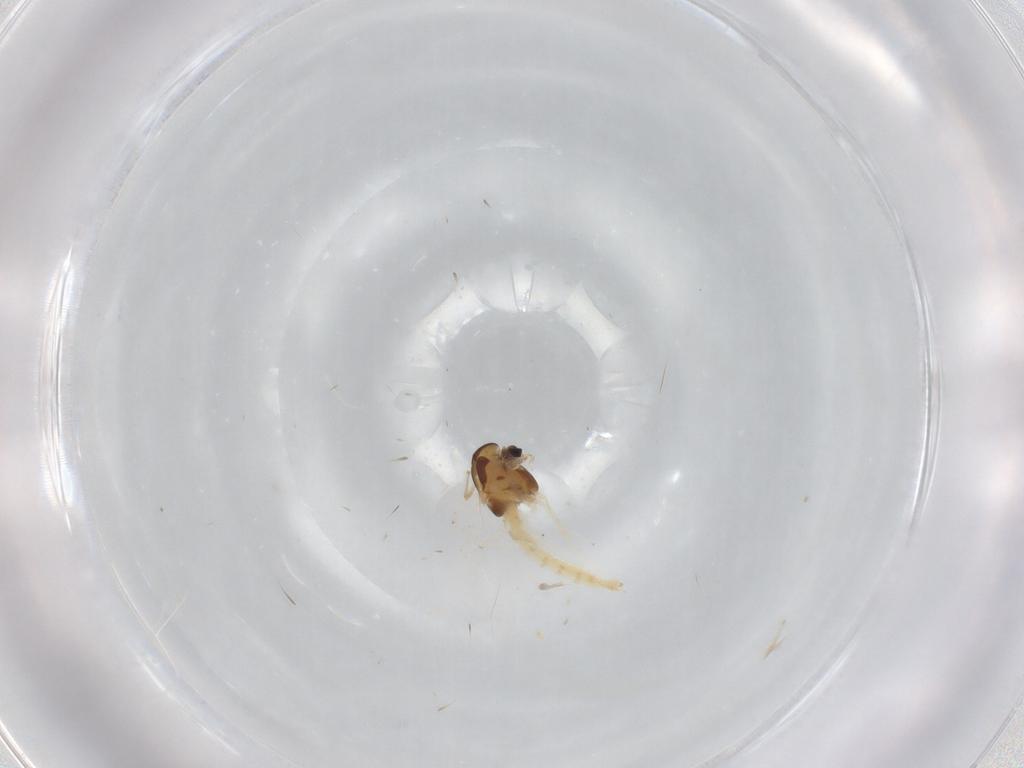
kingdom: Animalia
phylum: Arthropoda
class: Insecta
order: Diptera
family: Chironomidae
